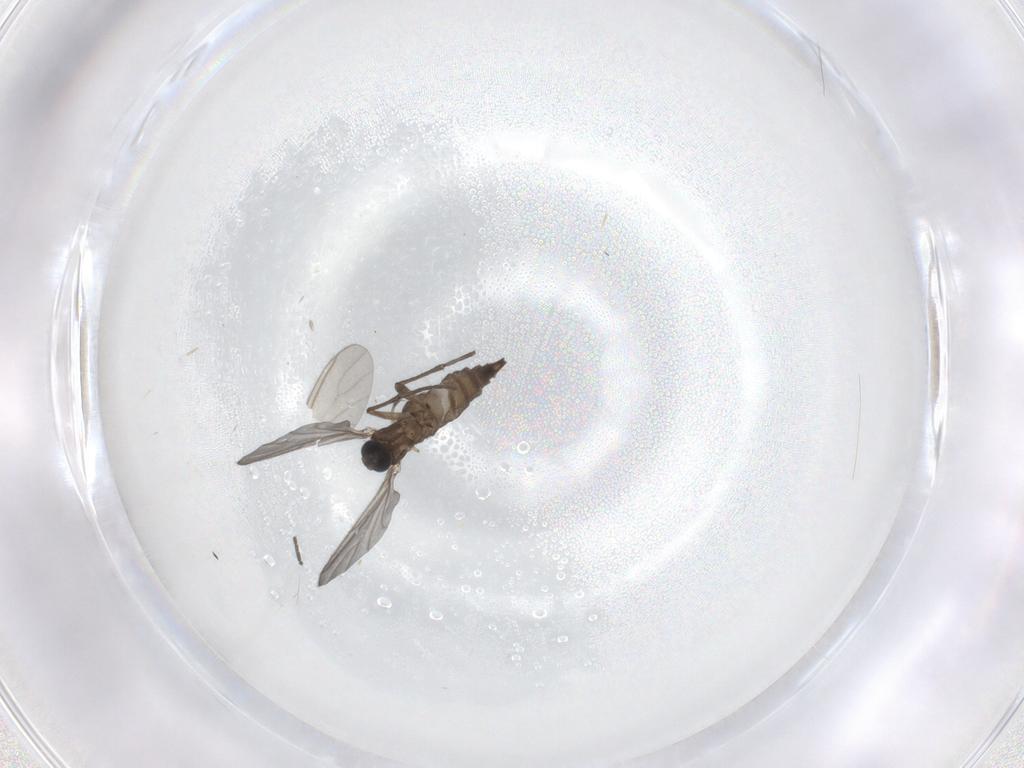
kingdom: Animalia
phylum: Arthropoda
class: Insecta
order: Diptera
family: Sciaridae
